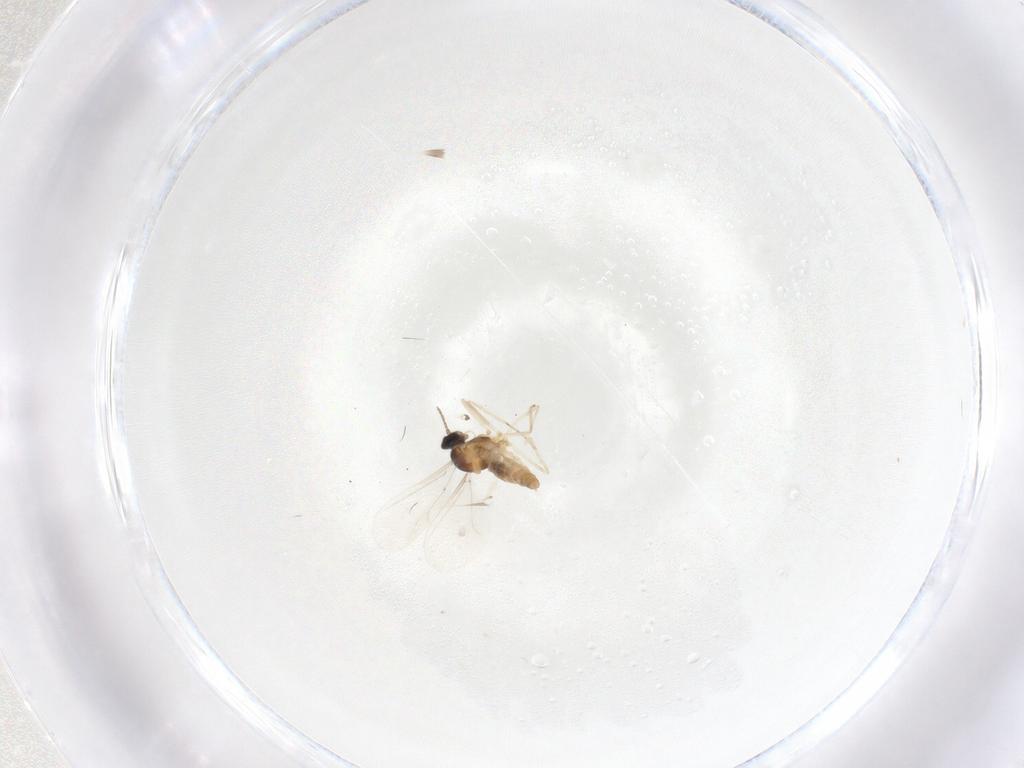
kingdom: Animalia
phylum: Arthropoda
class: Insecta
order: Diptera
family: Cecidomyiidae
